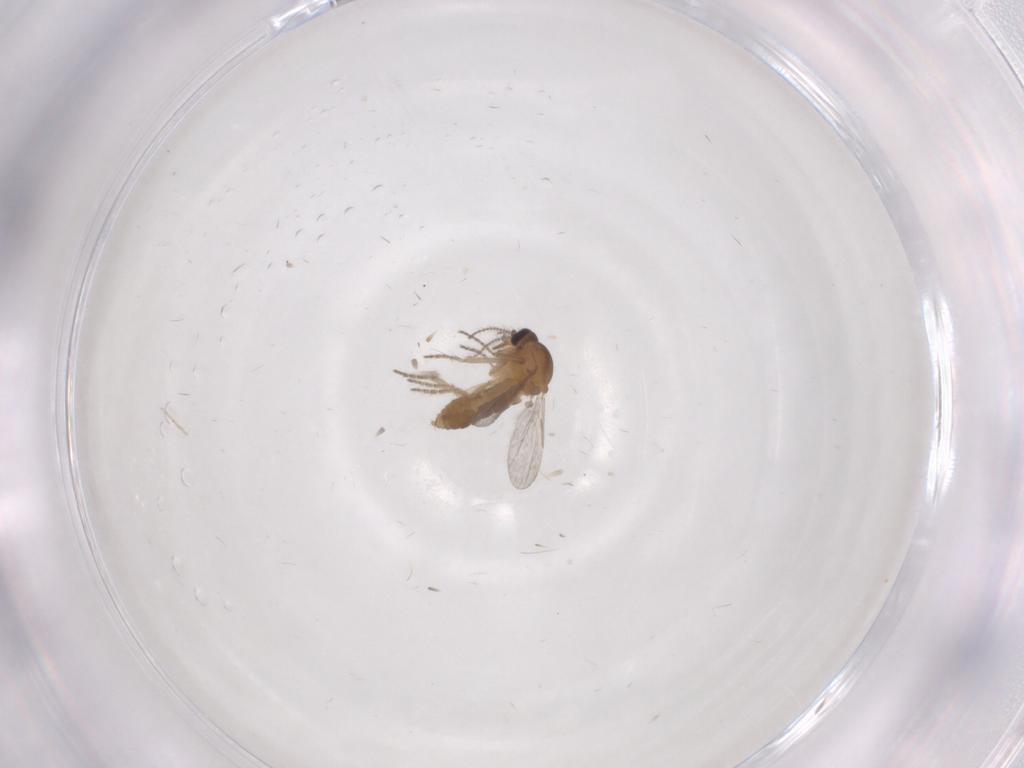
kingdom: Animalia
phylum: Arthropoda
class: Insecta
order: Diptera
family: Ceratopogonidae
